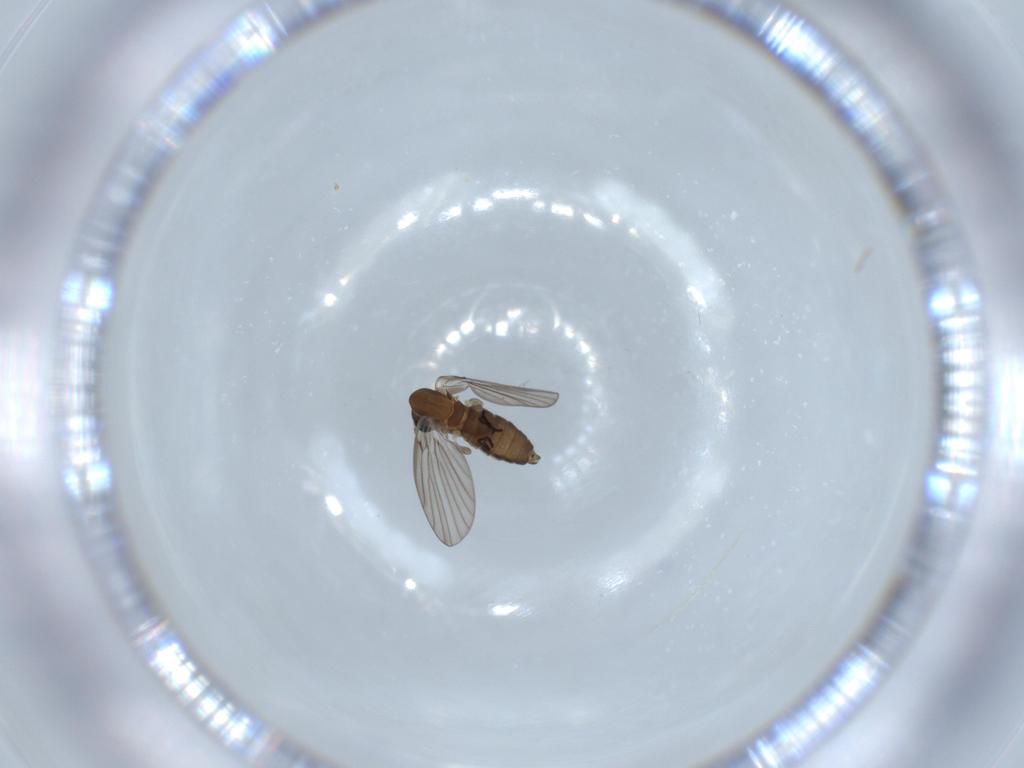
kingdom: Animalia
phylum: Arthropoda
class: Insecta
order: Diptera
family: Psychodidae
